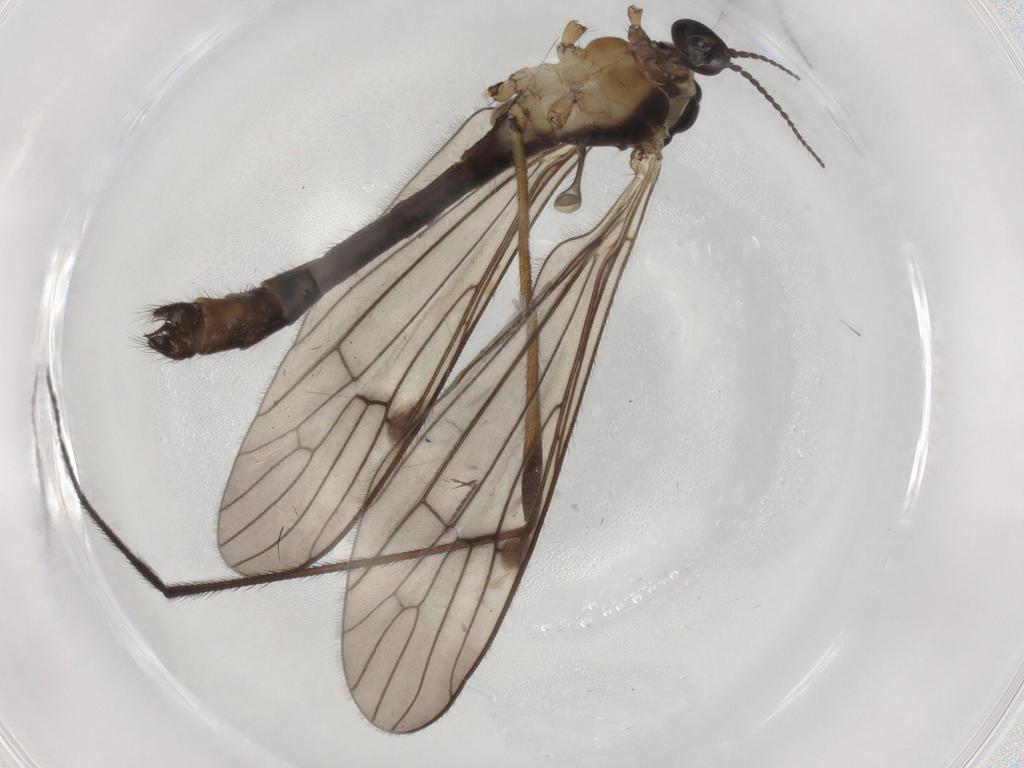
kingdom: Animalia
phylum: Arthropoda
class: Insecta
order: Diptera
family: Limoniidae
